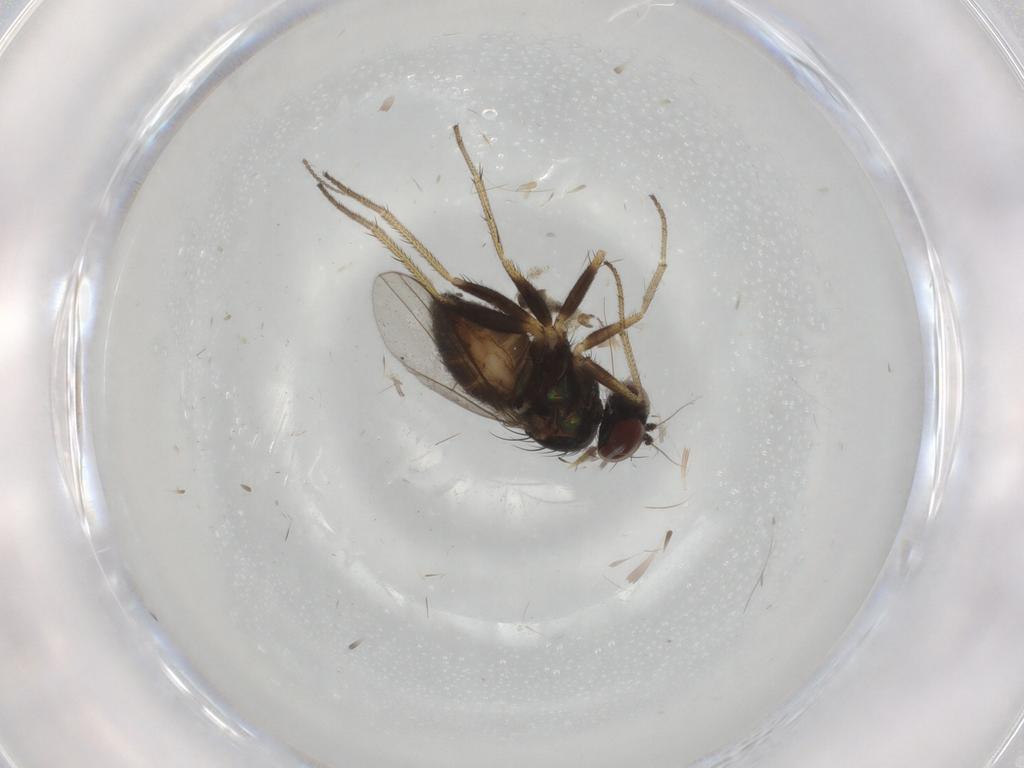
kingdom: Animalia
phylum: Arthropoda
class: Insecta
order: Diptera
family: Dolichopodidae
